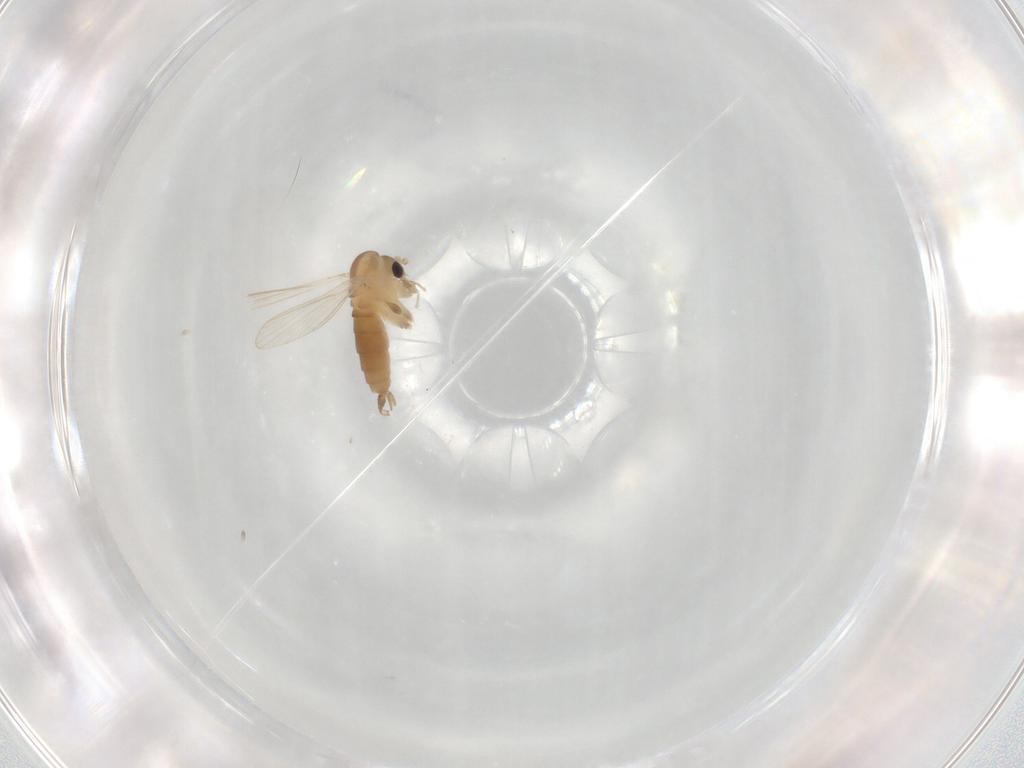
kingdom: Animalia
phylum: Arthropoda
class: Insecta
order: Diptera
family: Psychodidae
